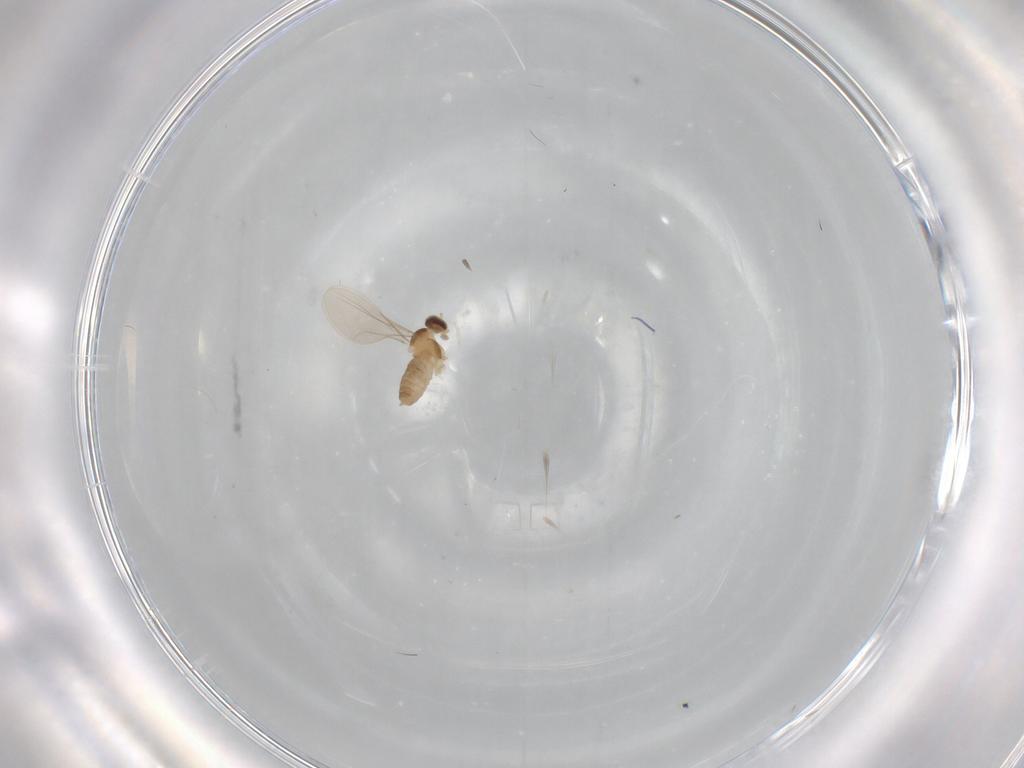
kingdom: Animalia
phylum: Arthropoda
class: Insecta
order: Diptera
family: Cecidomyiidae
